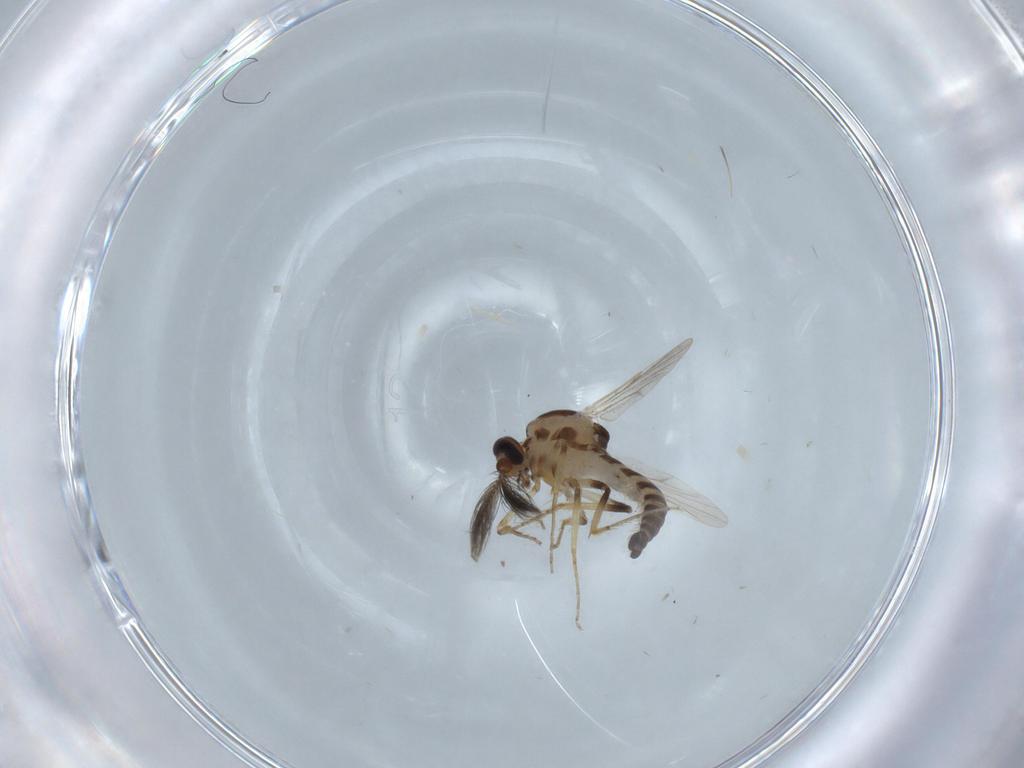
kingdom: Animalia
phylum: Arthropoda
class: Insecta
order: Diptera
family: Ceratopogonidae
